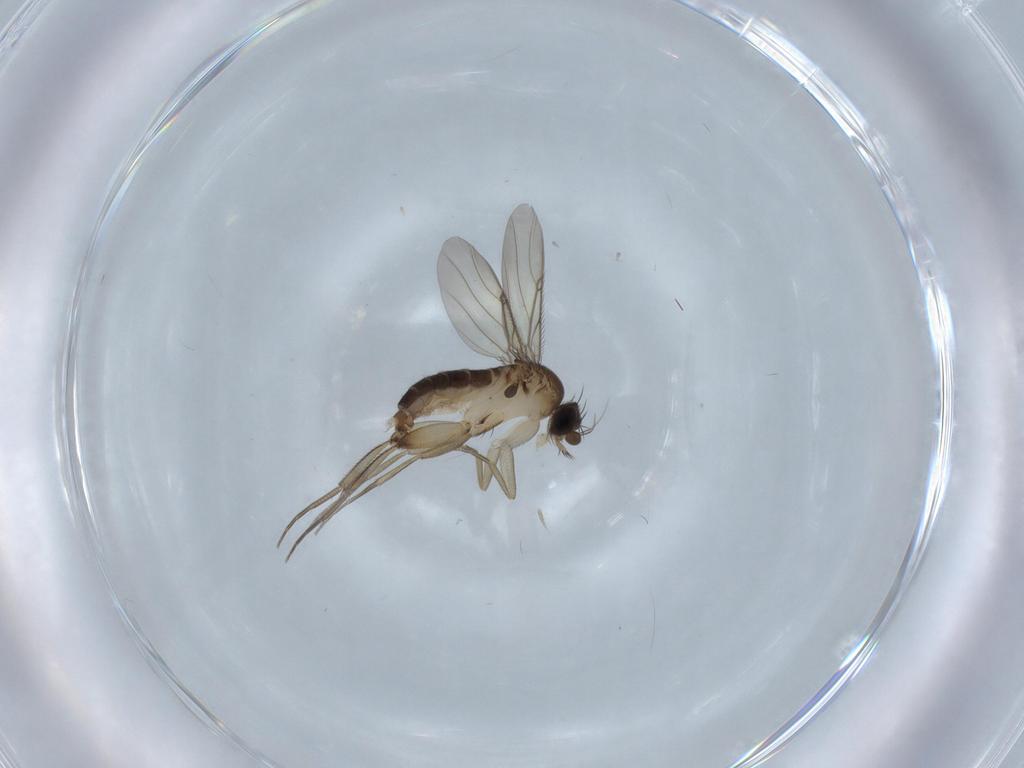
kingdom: Animalia
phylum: Arthropoda
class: Insecta
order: Diptera
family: Phoridae
